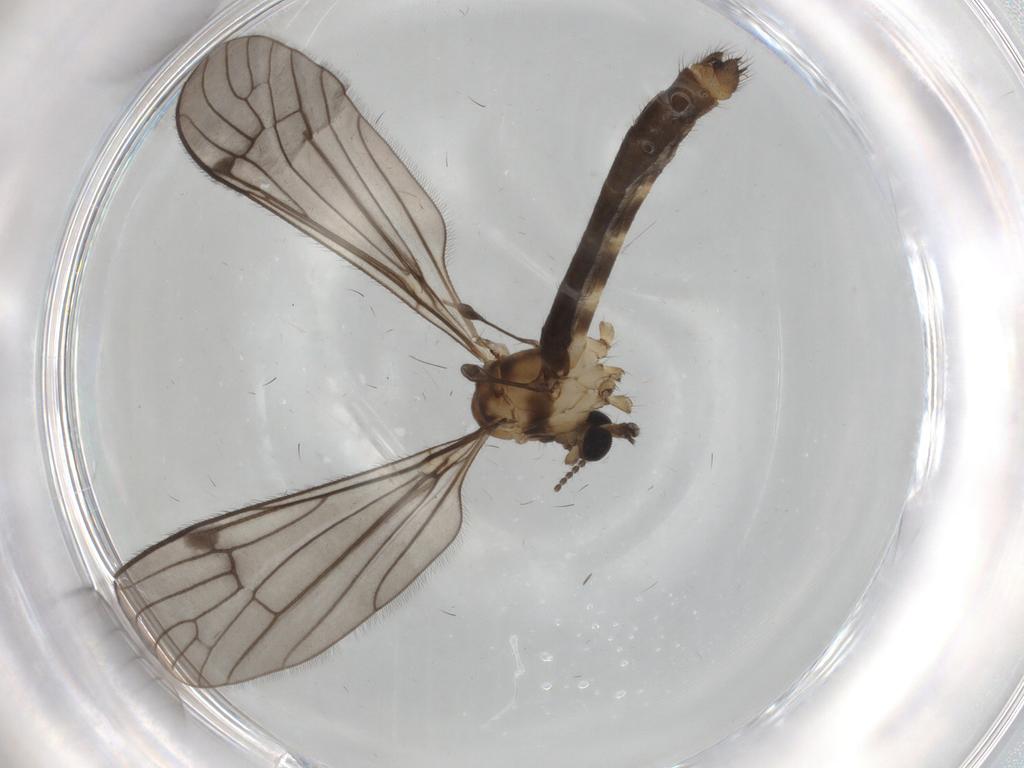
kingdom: Animalia
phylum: Arthropoda
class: Insecta
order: Diptera
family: Limoniidae
